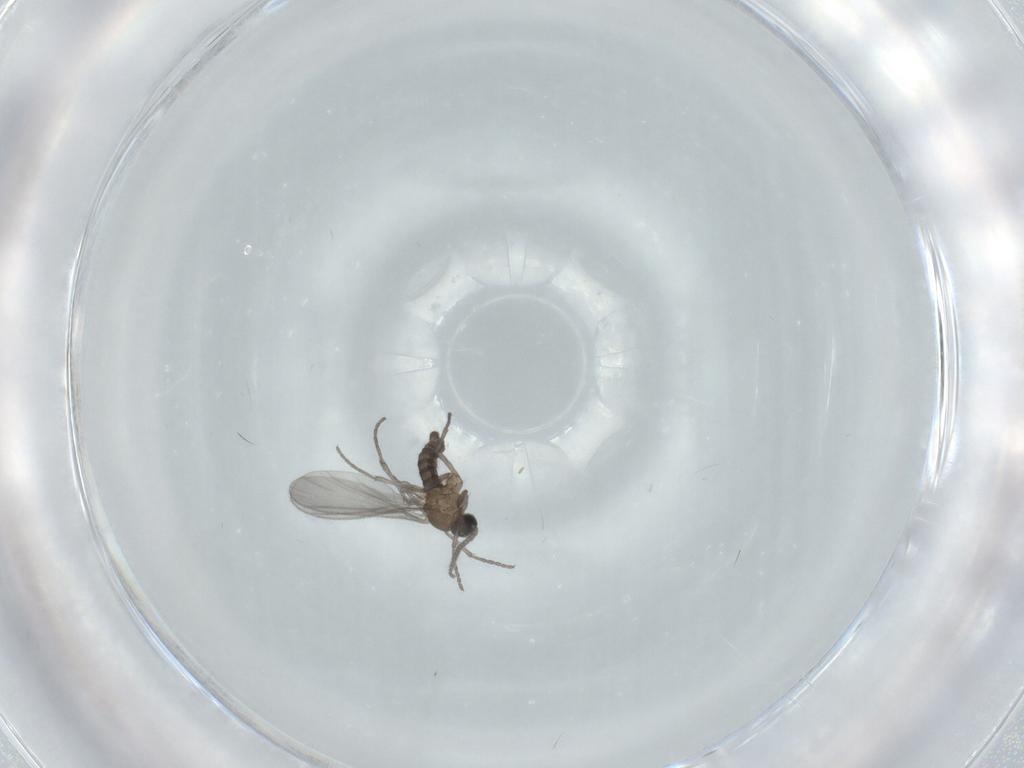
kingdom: Animalia
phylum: Arthropoda
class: Insecta
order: Diptera
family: Sciaridae
